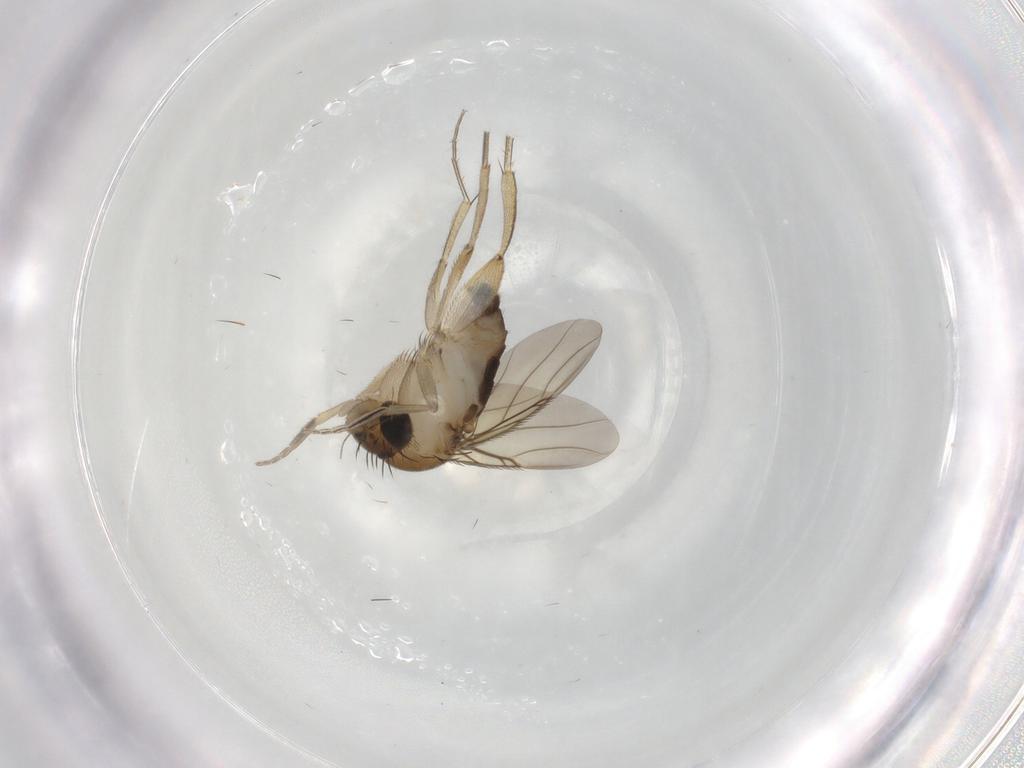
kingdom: Animalia
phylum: Arthropoda
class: Insecta
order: Diptera
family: Phoridae
